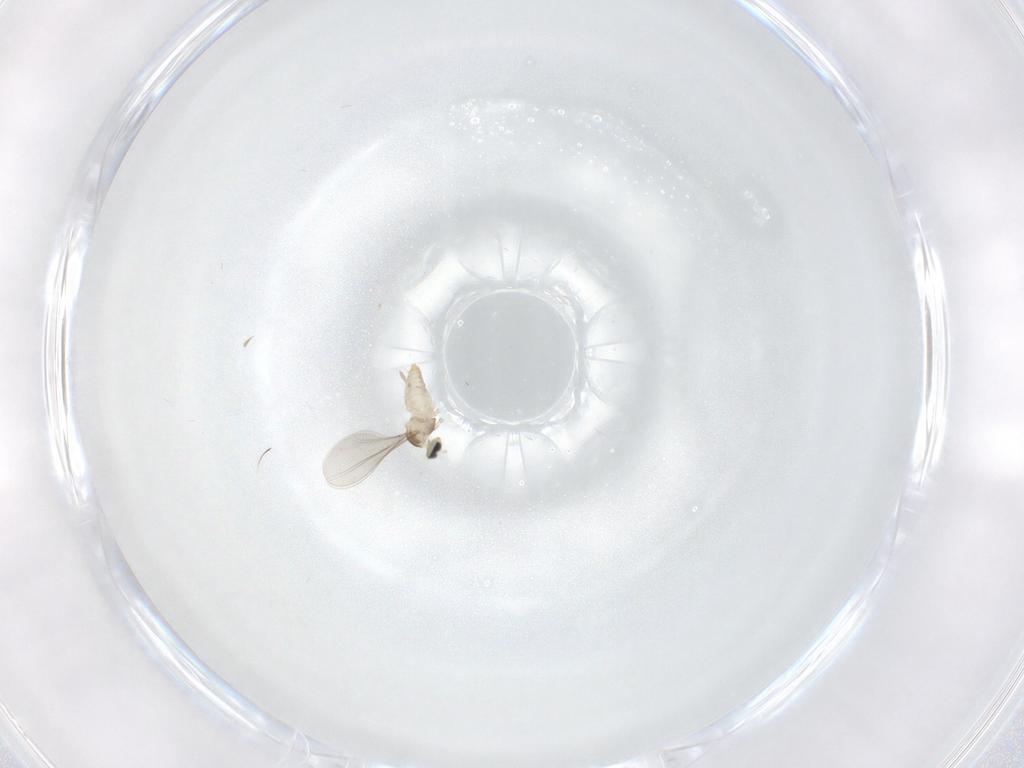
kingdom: Animalia
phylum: Arthropoda
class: Insecta
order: Diptera
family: Cecidomyiidae
